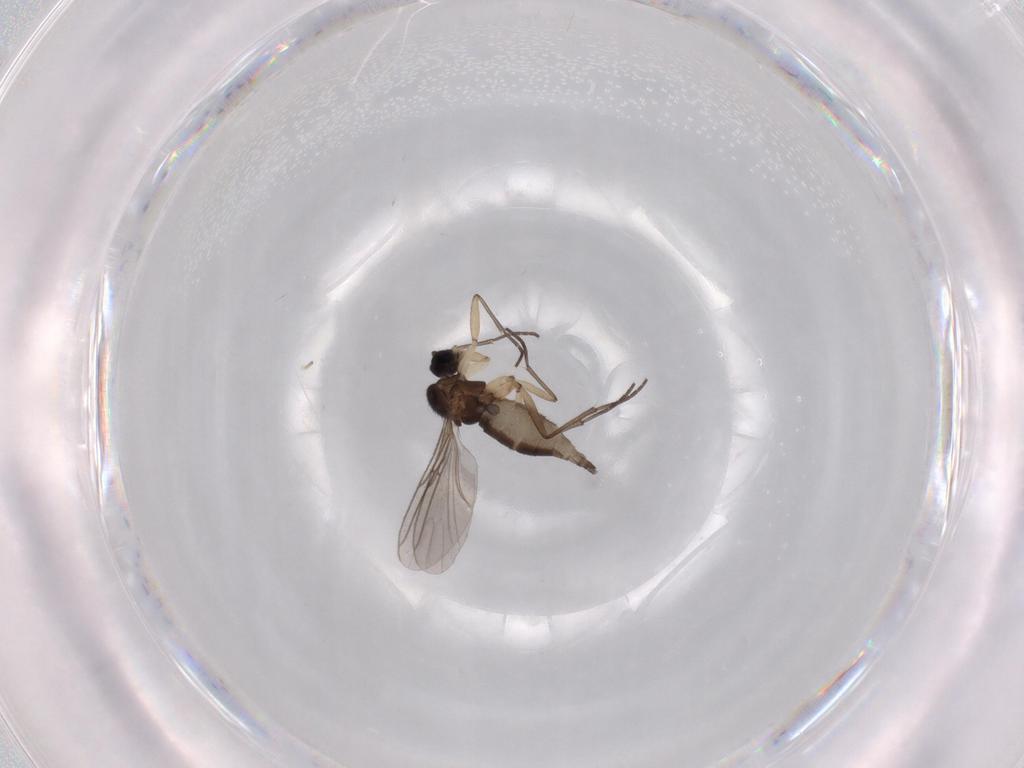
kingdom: Animalia
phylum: Arthropoda
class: Insecta
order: Diptera
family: Sciaridae
